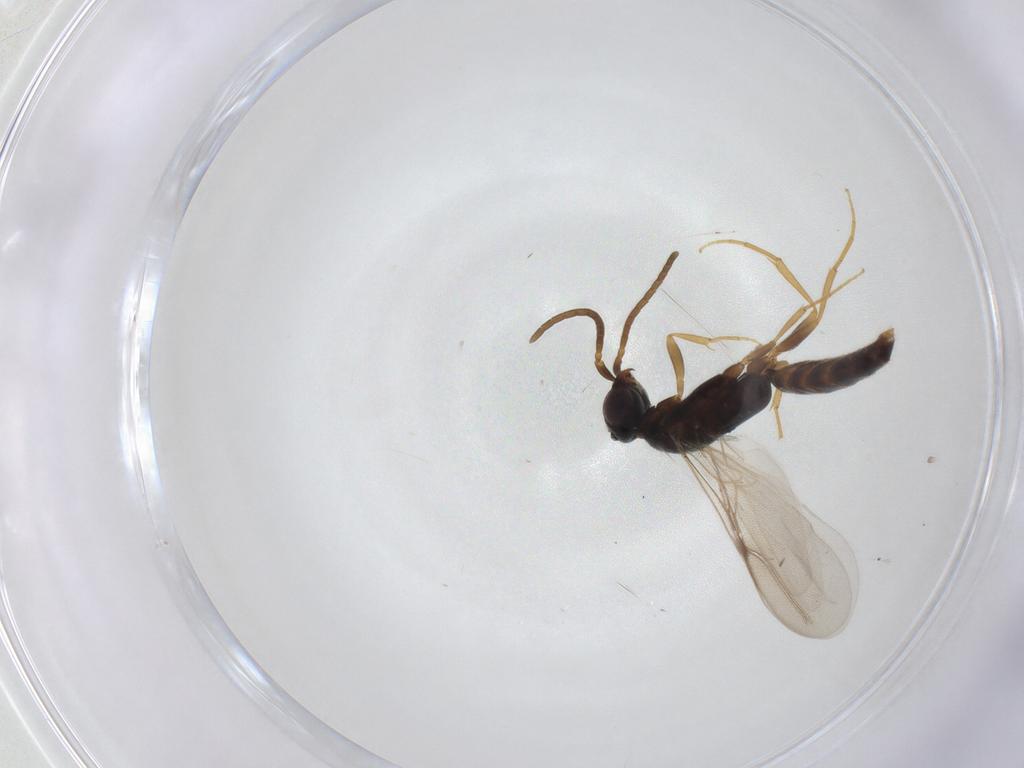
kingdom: Animalia
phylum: Arthropoda
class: Insecta
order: Hymenoptera
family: Bethylidae
